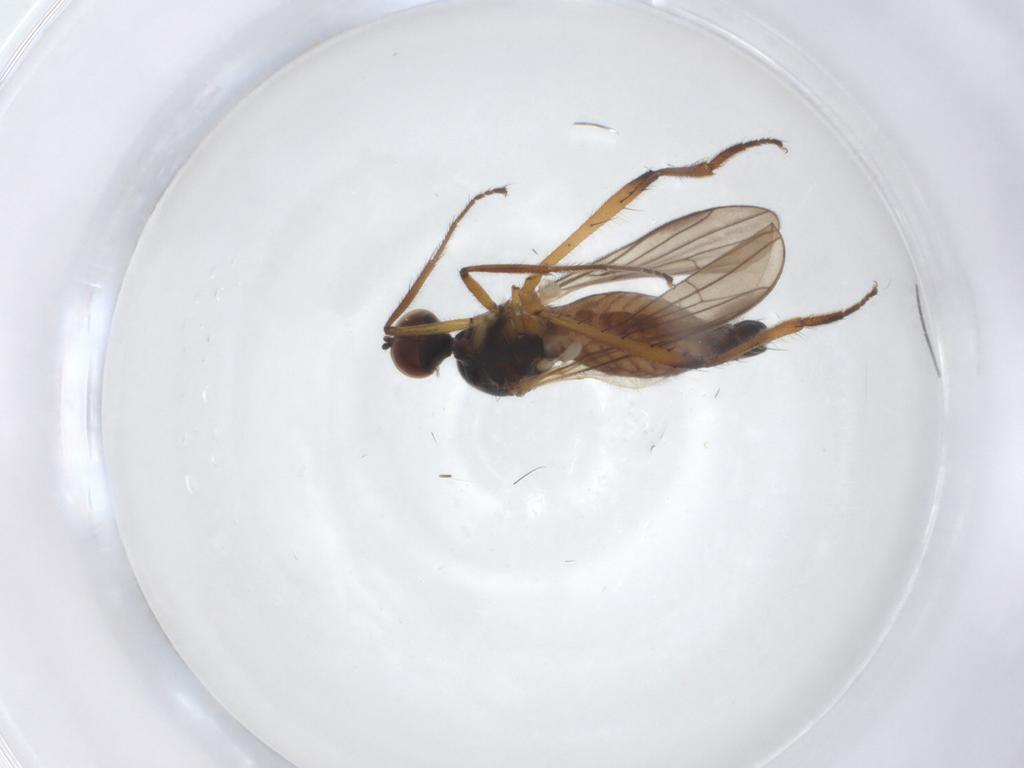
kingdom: Animalia
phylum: Arthropoda
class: Insecta
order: Diptera
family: Hybotidae
